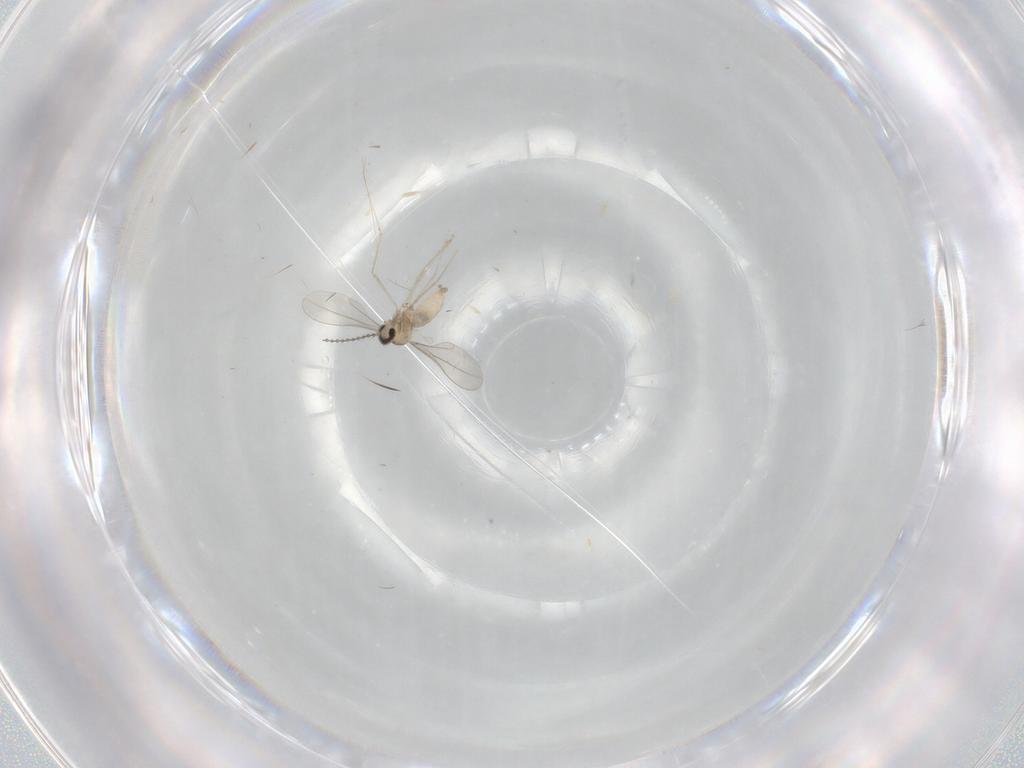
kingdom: Animalia
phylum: Arthropoda
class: Insecta
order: Diptera
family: Cecidomyiidae
